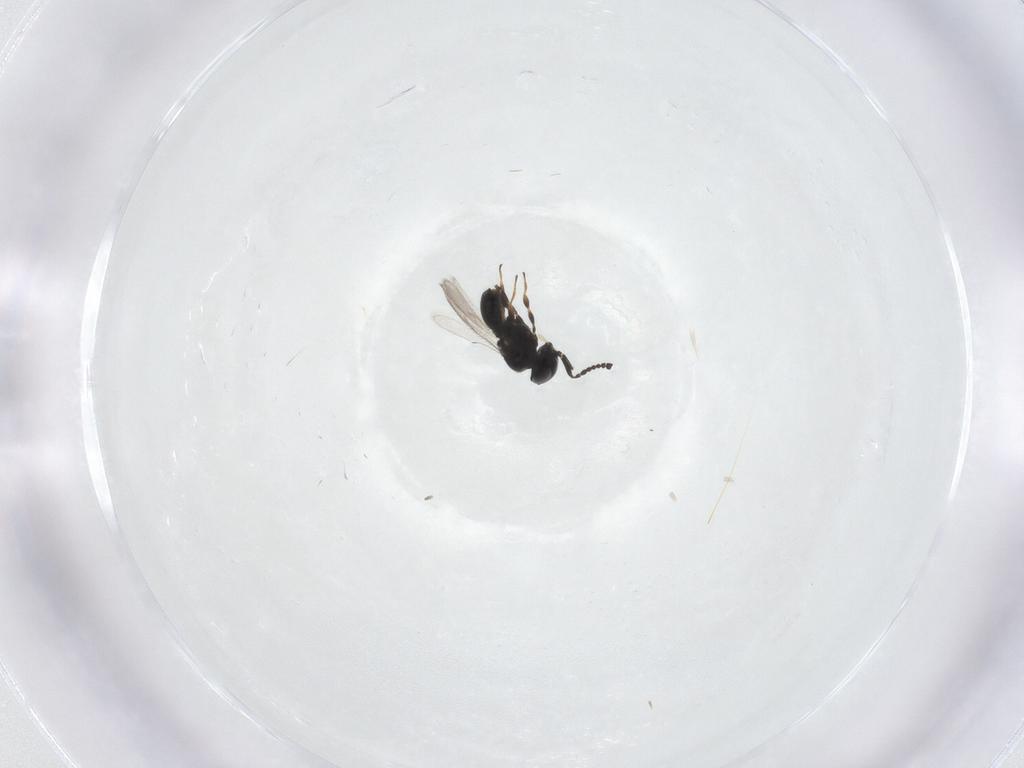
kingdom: Animalia
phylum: Arthropoda
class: Insecta
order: Hymenoptera
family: Scelionidae
